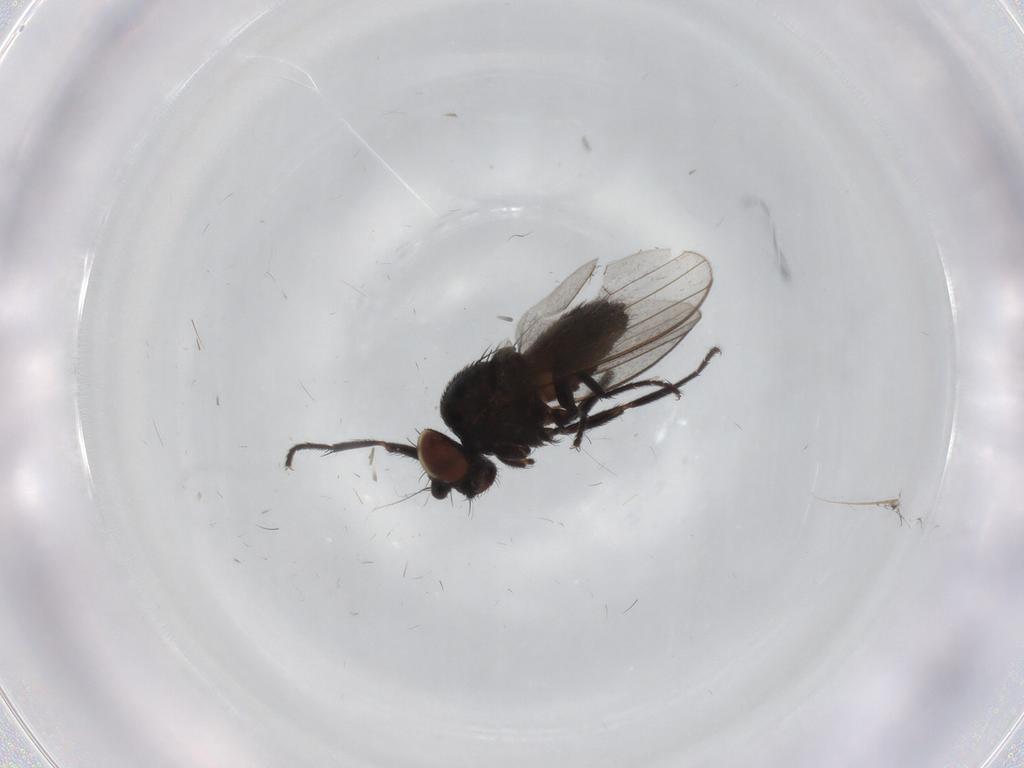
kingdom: Animalia
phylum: Arthropoda
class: Insecta
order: Diptera
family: Milichiidae
